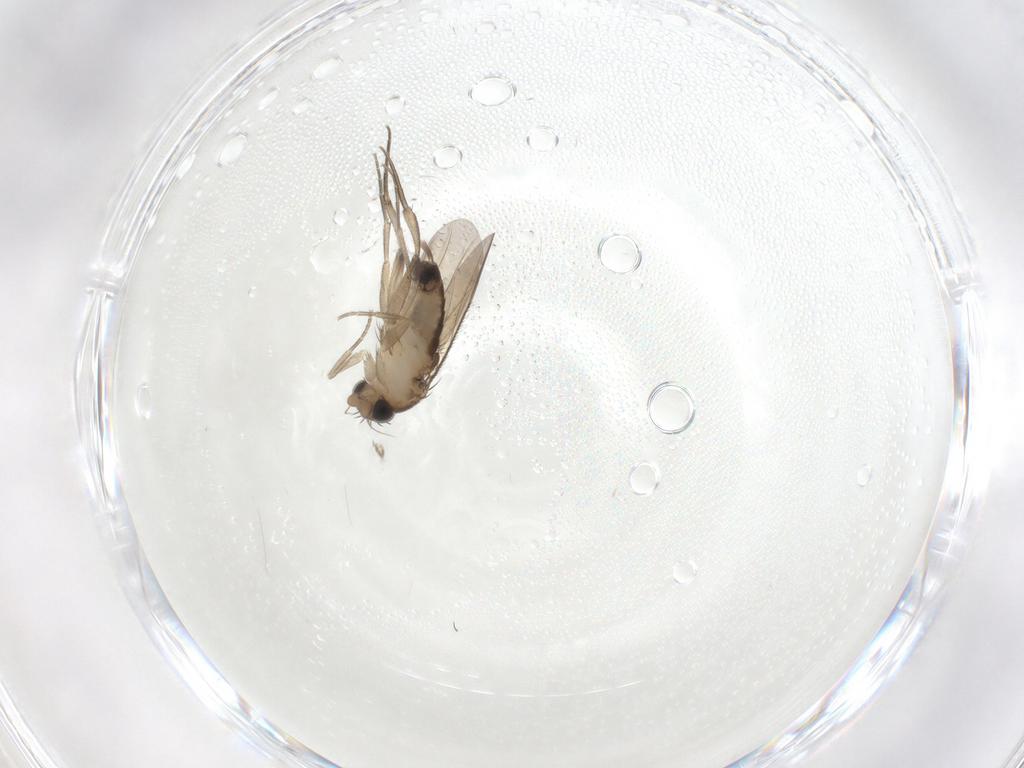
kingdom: Animalia
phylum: Arthropoda
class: Insecta
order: Diptera
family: Phoridae
